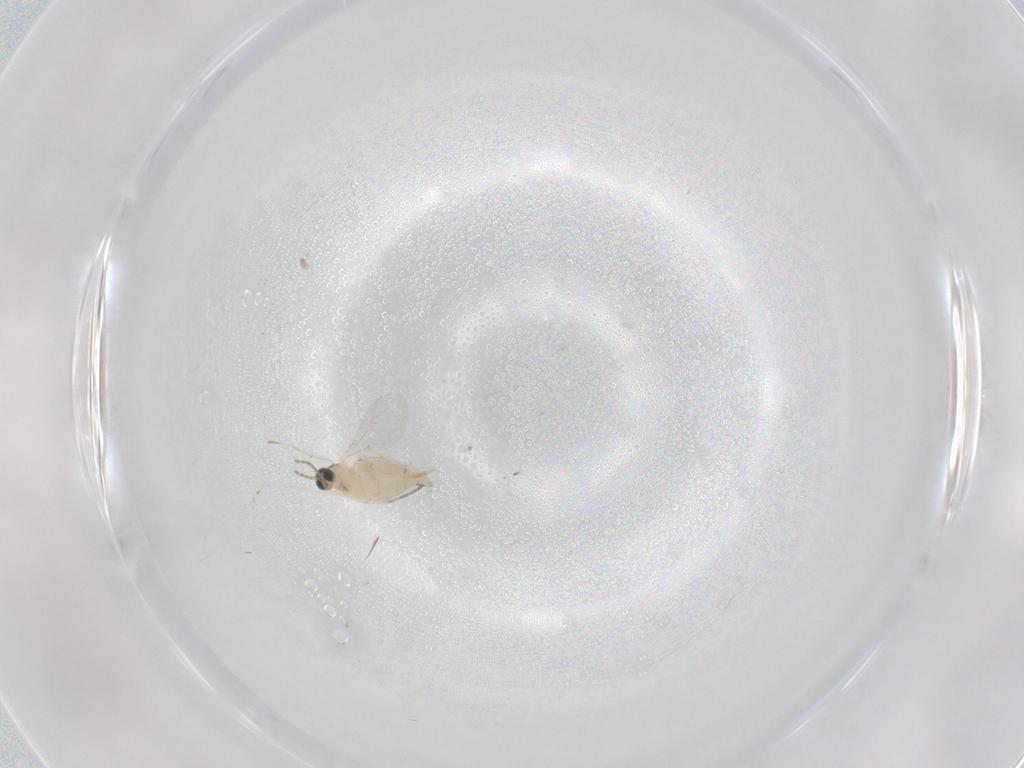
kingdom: Animalia
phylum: Arthropoda
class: Insecta
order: Diptera
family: Cecidomyiidae
